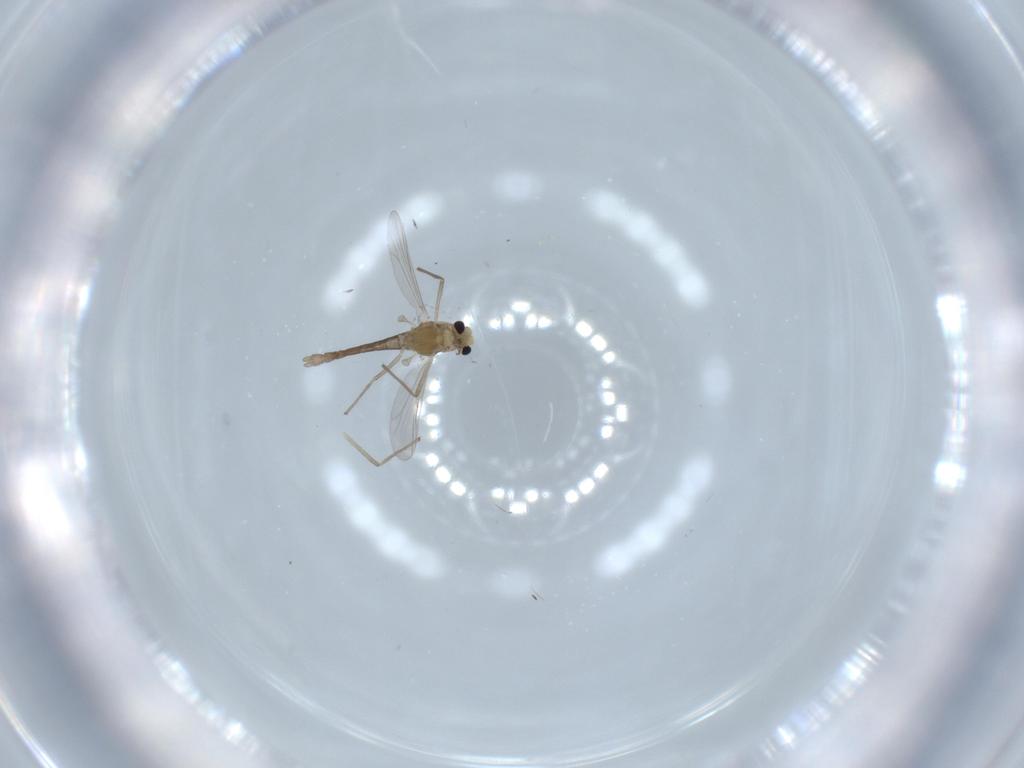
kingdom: Animalia
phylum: Arthropoda
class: Insecta
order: Diptera
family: Chironomidae
